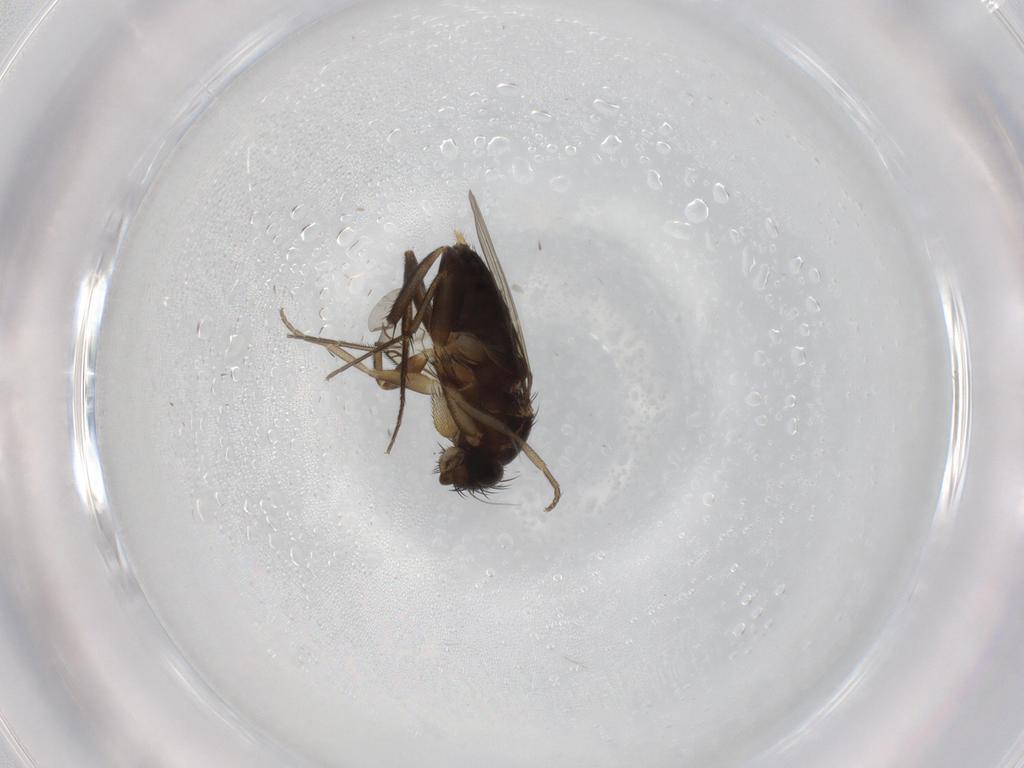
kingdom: Animalia
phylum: Arthropoda
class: Insecta
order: Diptera
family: Phoridae
